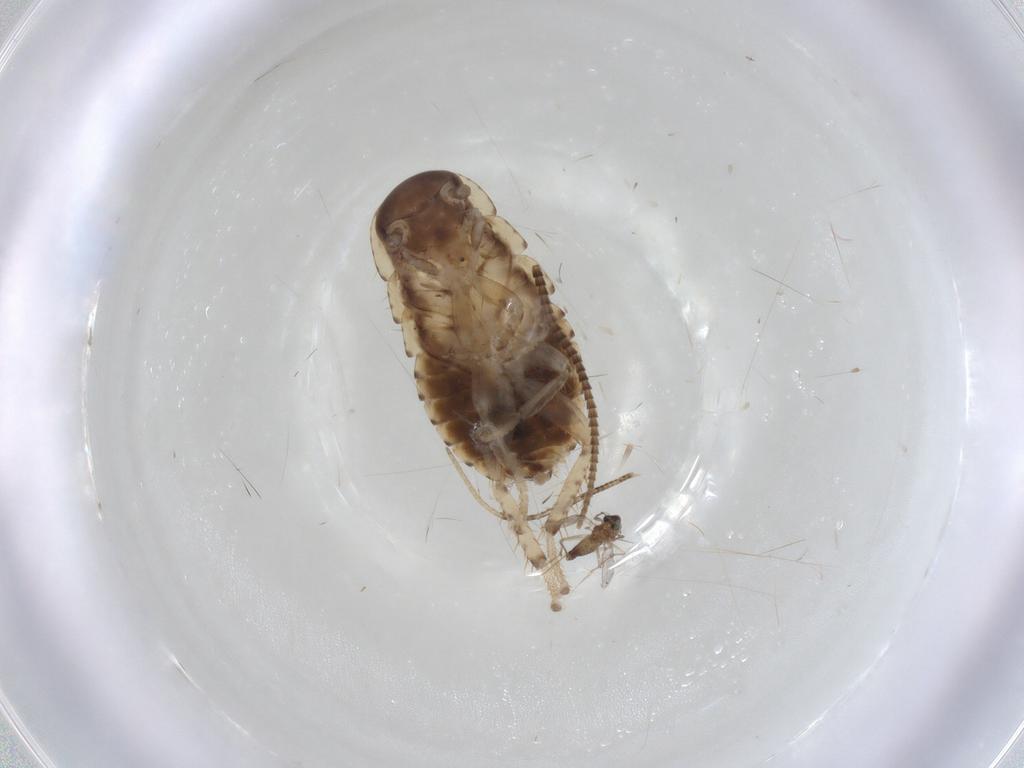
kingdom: Animalia
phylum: Arthropoda
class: Insecta
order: Blattodea
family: Blaberidae
